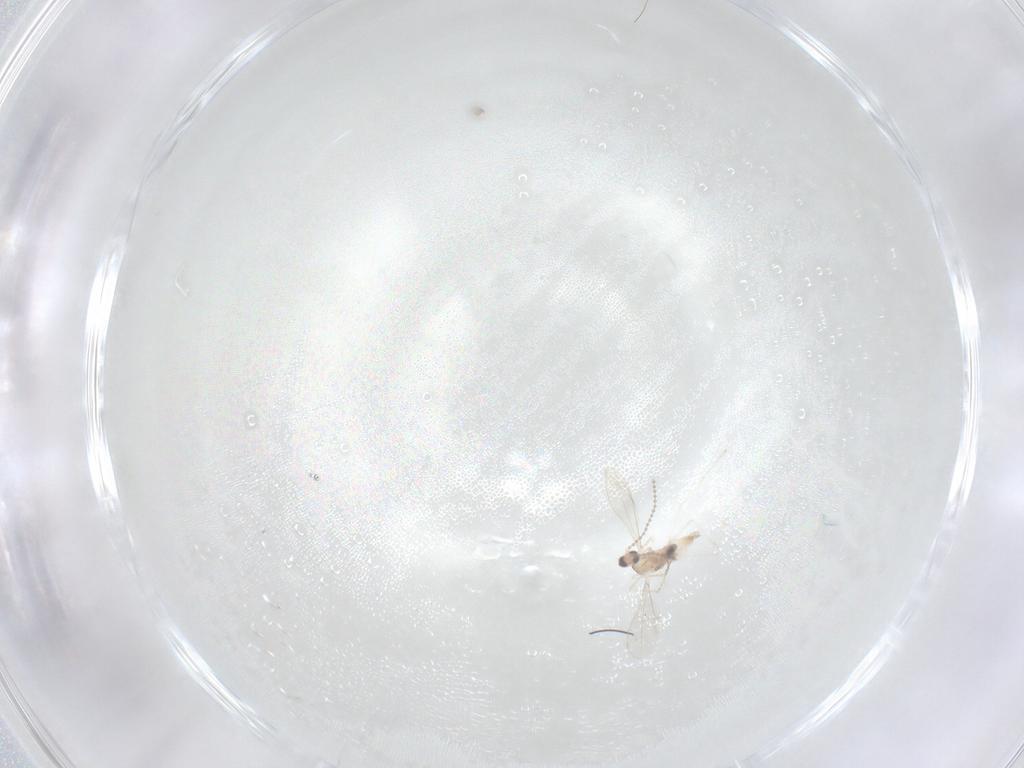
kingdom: Animalia
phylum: Arthropoda
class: Insecta
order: Diptera
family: Cecidomyiidae
